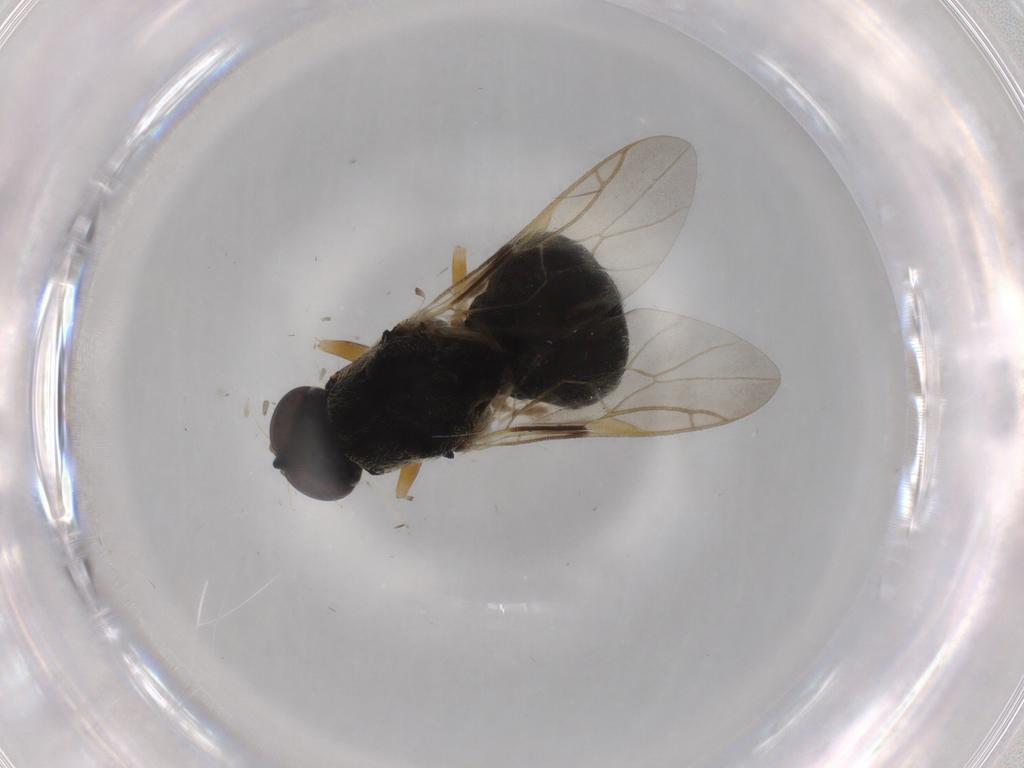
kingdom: Animalia
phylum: Arthropoda
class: Insecta
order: Diptera
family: Stratiomyidae
